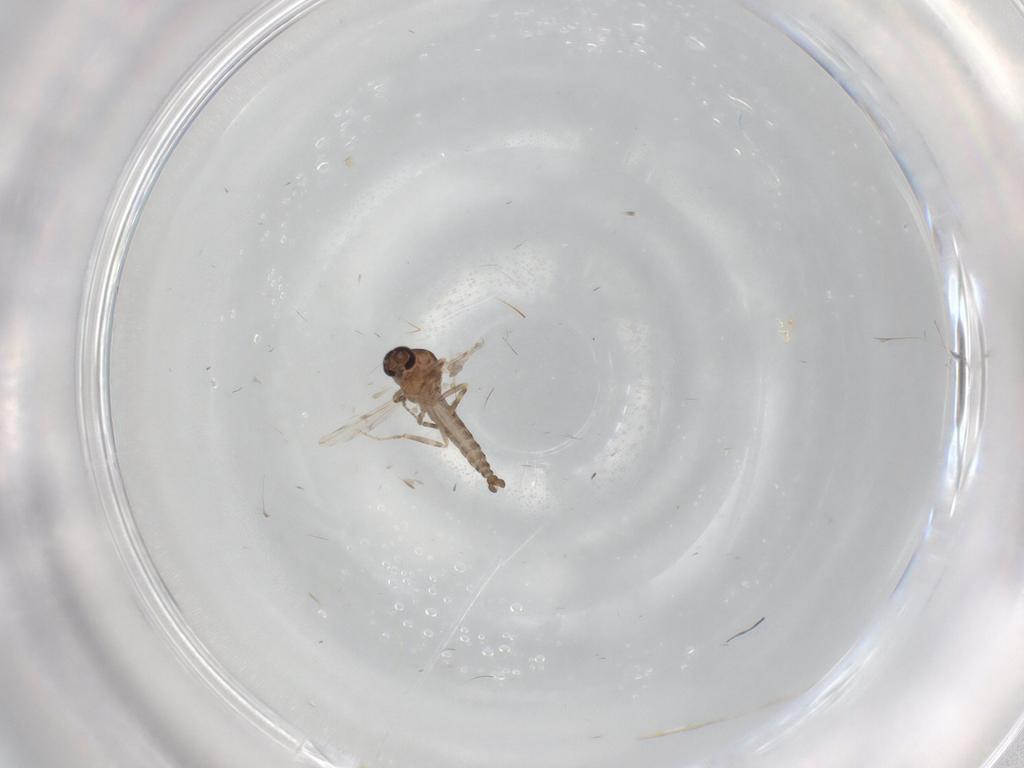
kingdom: Animalia
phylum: Arthropoda
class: Insecta
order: Diptera
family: Ceratopogonidae
